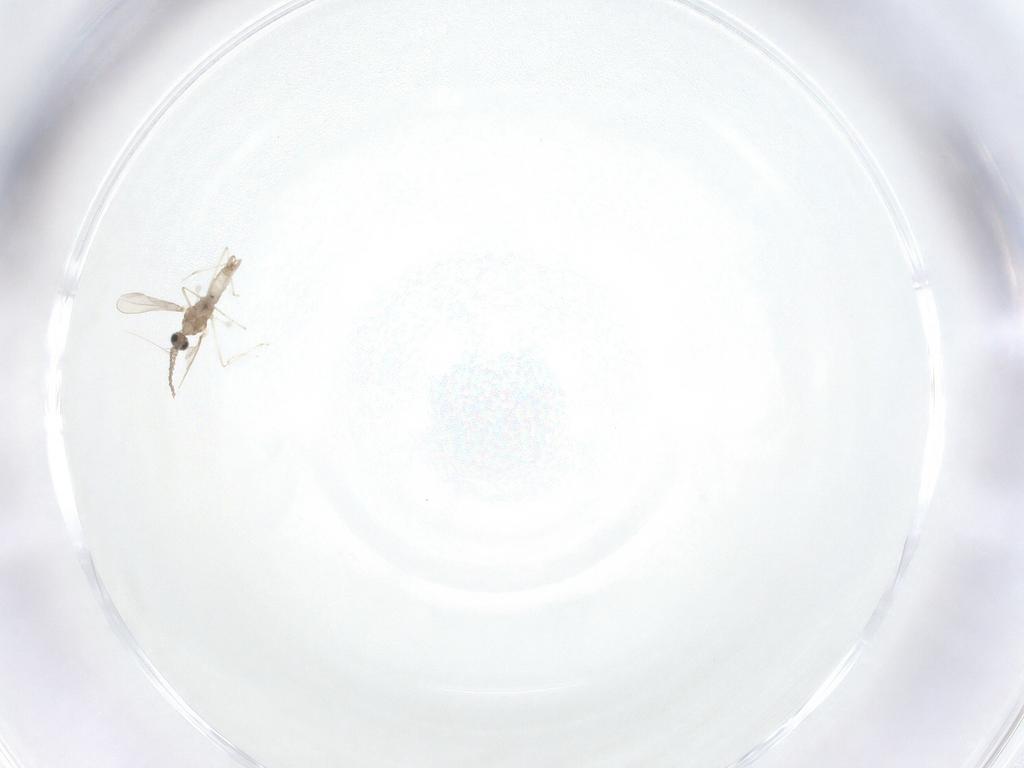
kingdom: Animalia
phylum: Arthropoda
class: Insecta
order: Diptera
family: Cecidomyiidae
